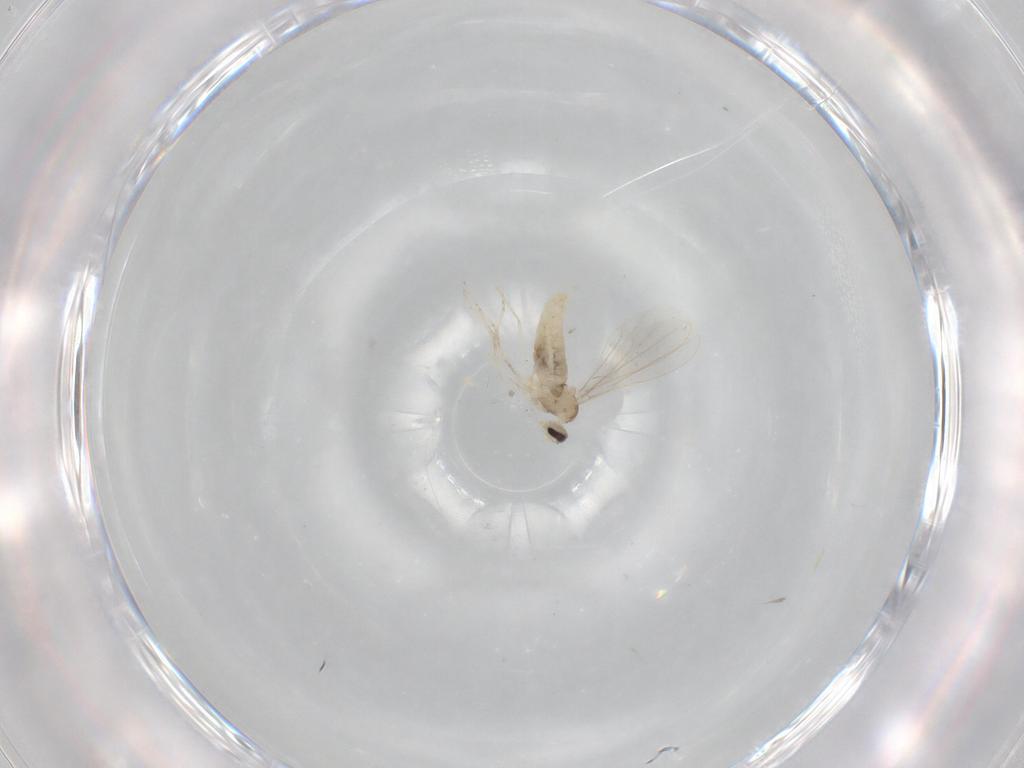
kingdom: Animalia
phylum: Arthropoda
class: Insecta
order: Diptera
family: Cecidomyiidae
